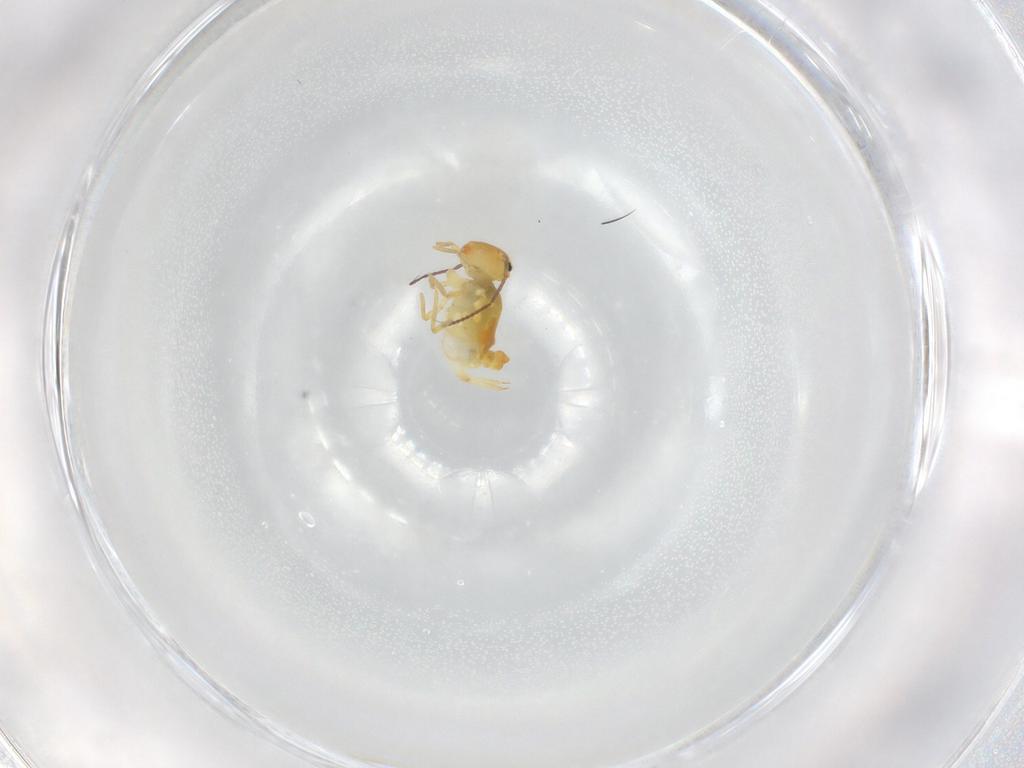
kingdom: Animalia
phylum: Arthropoda
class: Collembola
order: Symphypleona
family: Bourletiellidae
